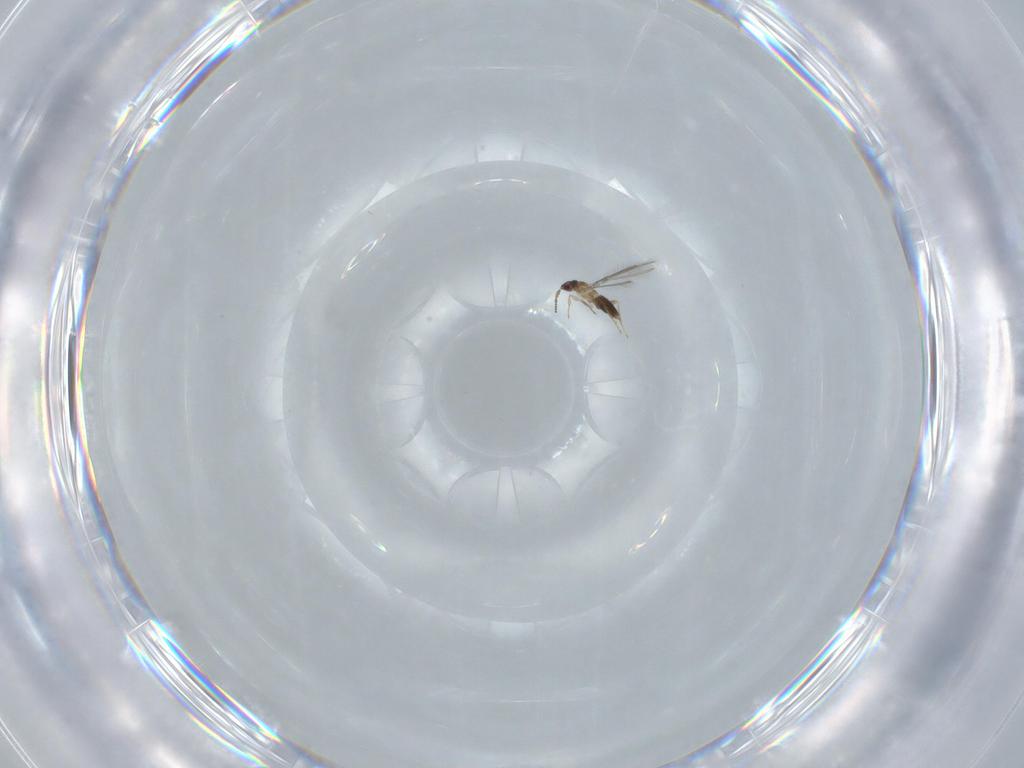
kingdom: Animalia
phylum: Arthropoda
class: Insecta
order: Hymenoptera
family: Mymaridae
